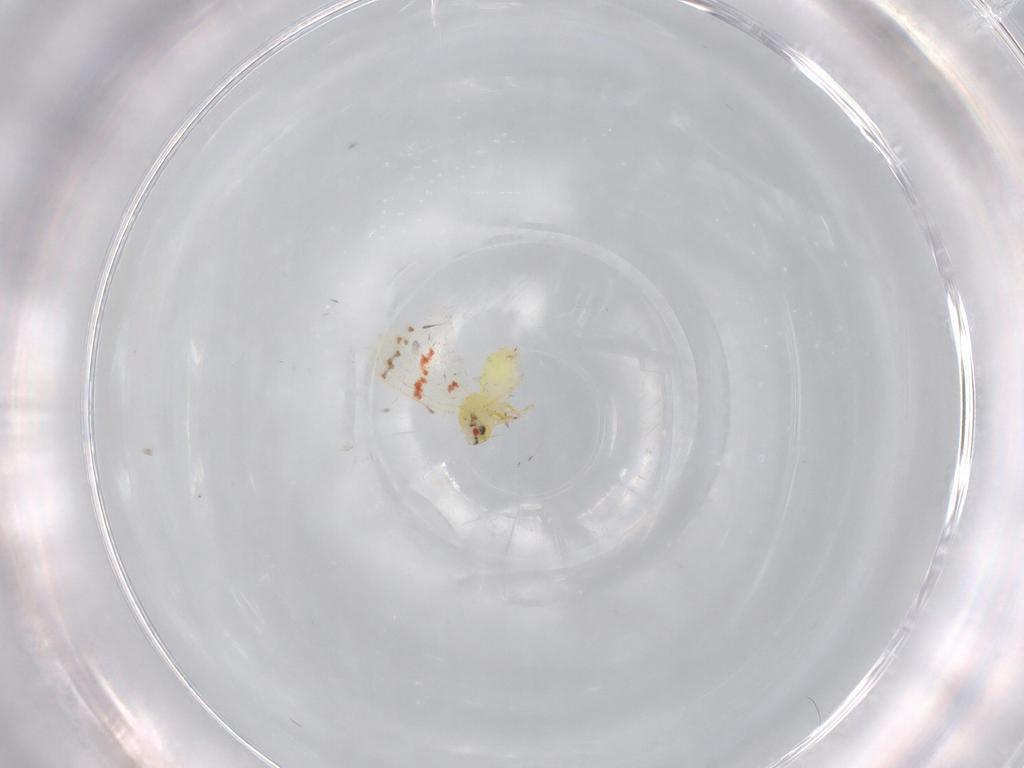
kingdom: Animalia
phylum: Arthropoda
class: Insecta
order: Hemiptera
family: Aleyrodidae
